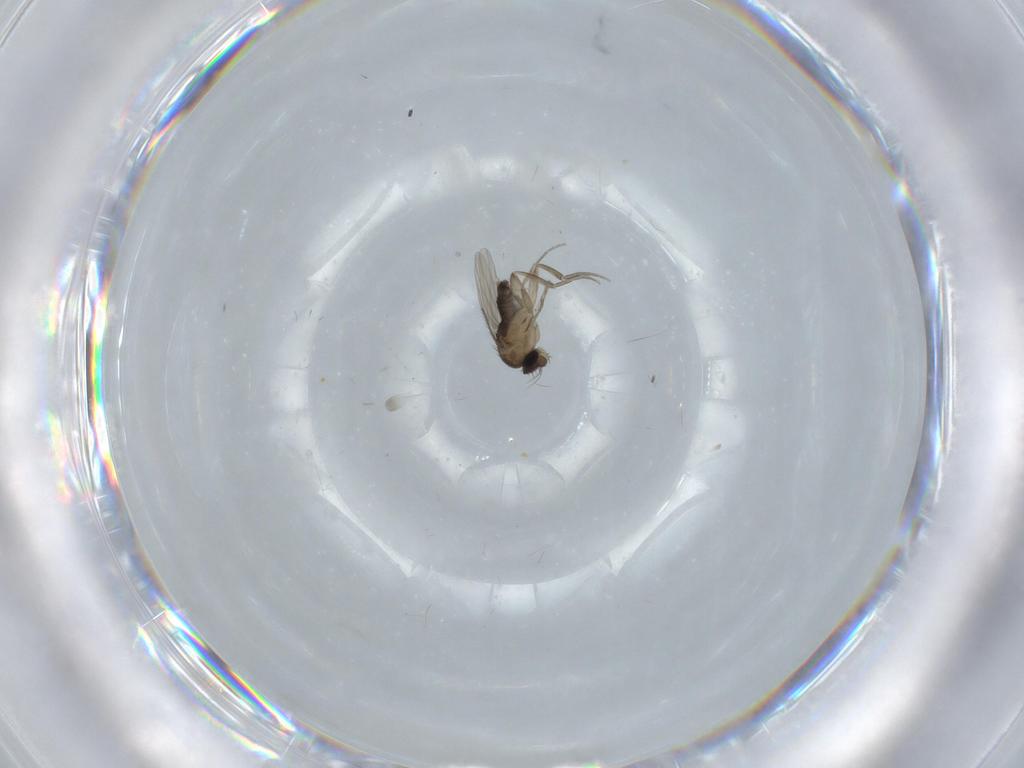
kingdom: Animalia
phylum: Arthropoda
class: Insecta
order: Diptera
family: Phoridae
